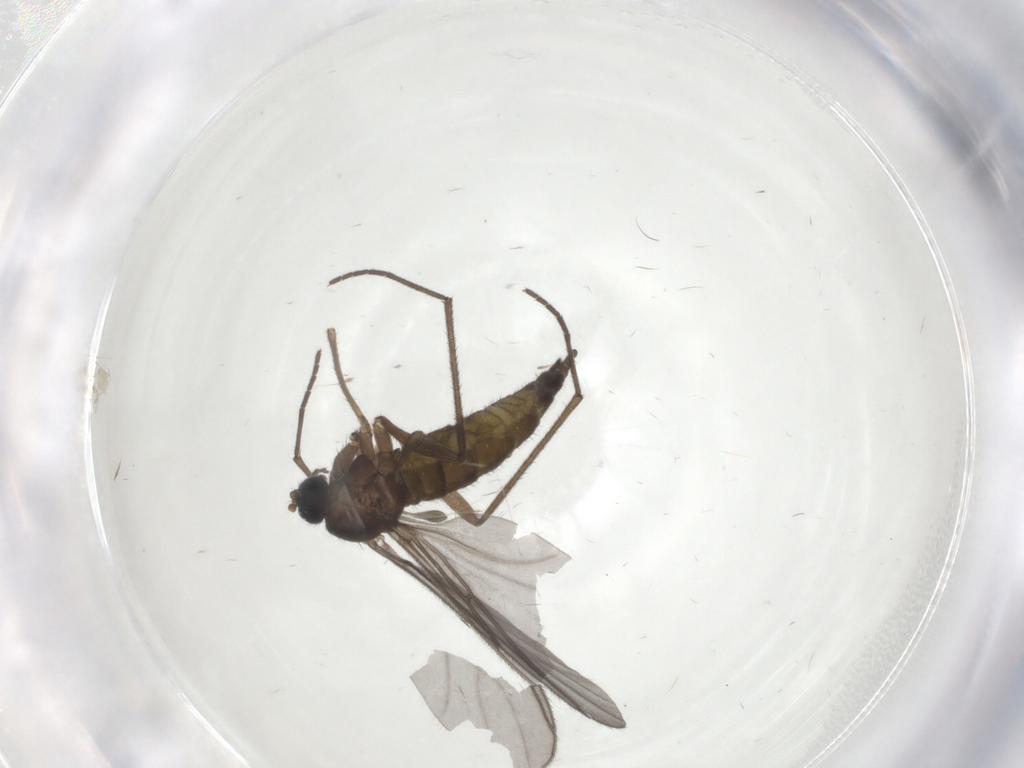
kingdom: Animalia
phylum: Arthropoda
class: Insecta
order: Diptera
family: Sciaridae
